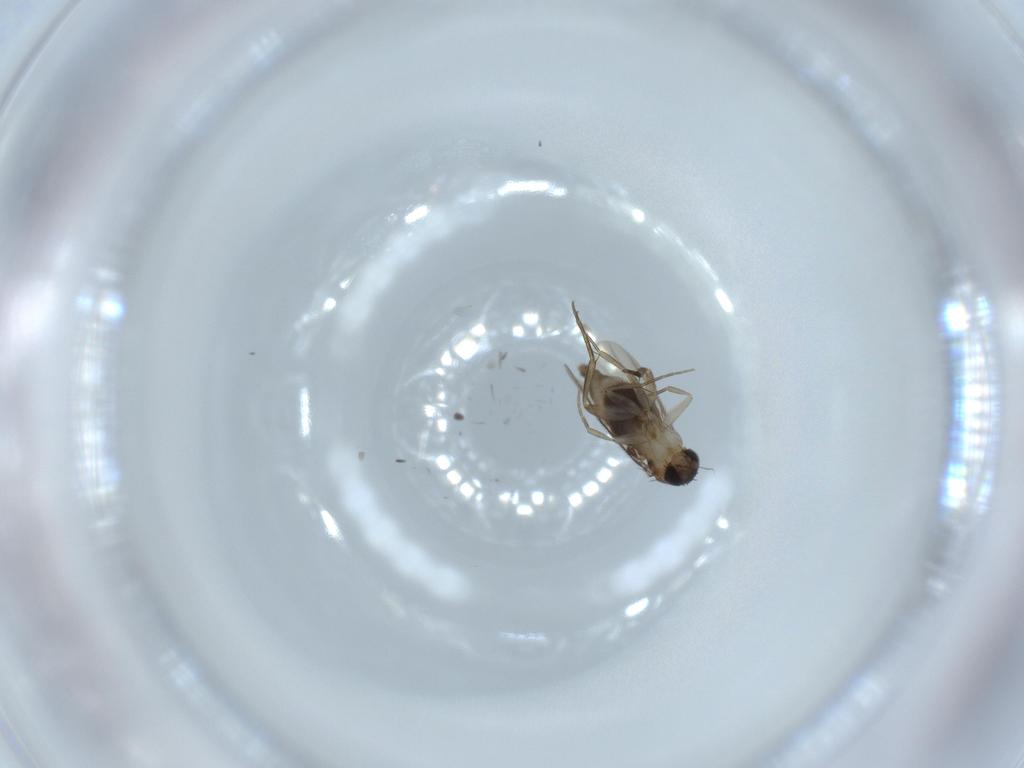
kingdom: Animalia
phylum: Arthropoda
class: Insecta
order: Diptera
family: Phoridae
